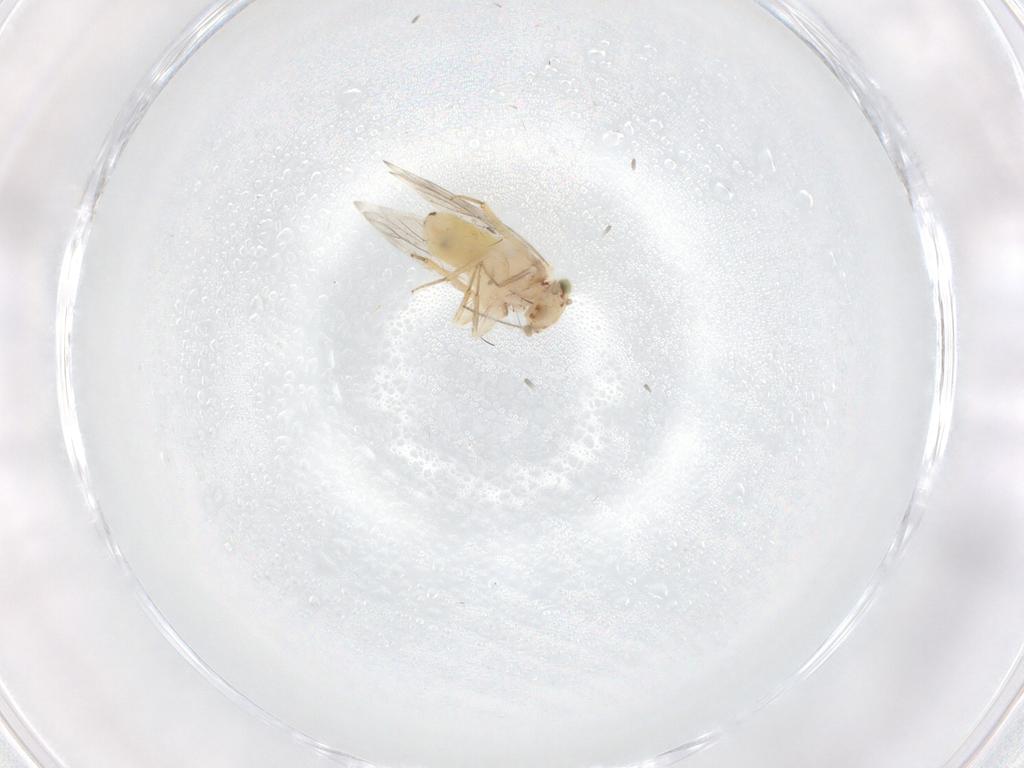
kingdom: Animalia
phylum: Arthropoda
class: Insecta
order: Psocodea
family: Lepidopsocidae
